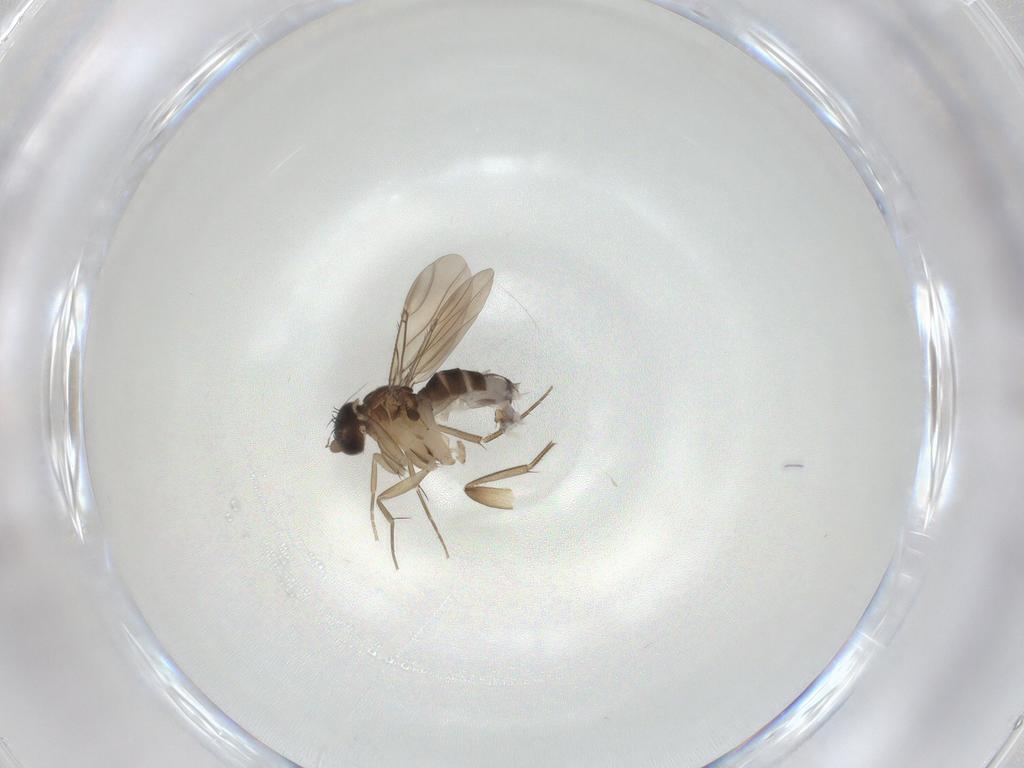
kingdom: Animalia
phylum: Arthropoda
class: Insecta
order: Diptera
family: Phoridae
